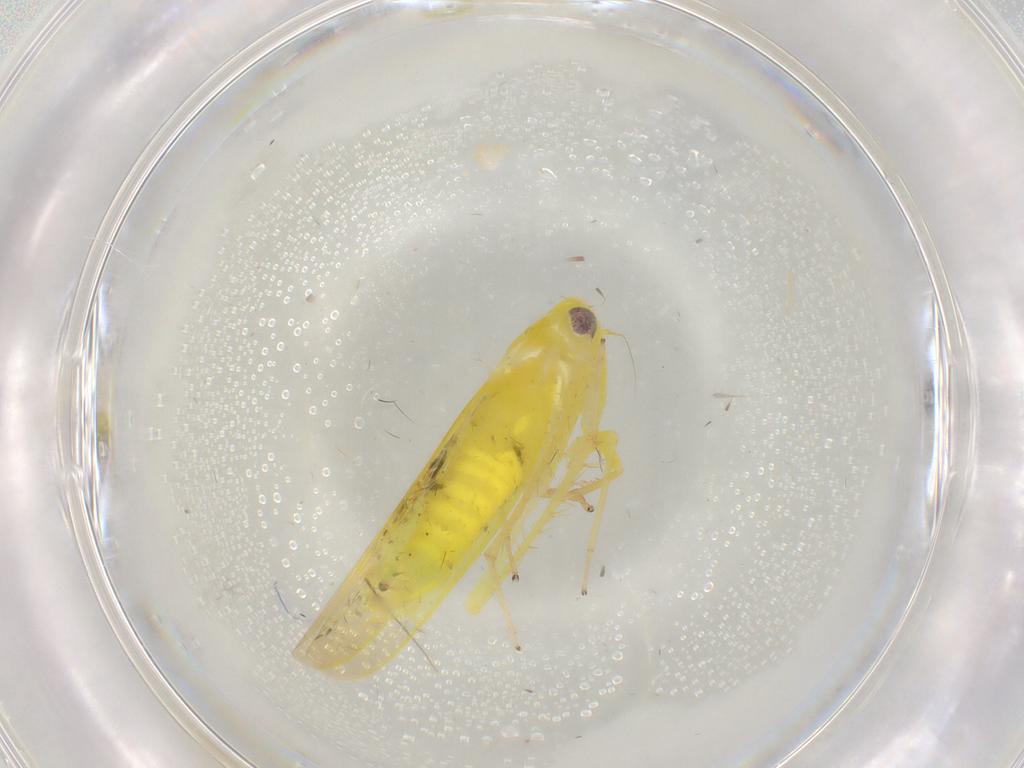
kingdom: Animalia
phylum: Arthropoda
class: Insecta
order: Hemiptera
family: Cicadellidae
